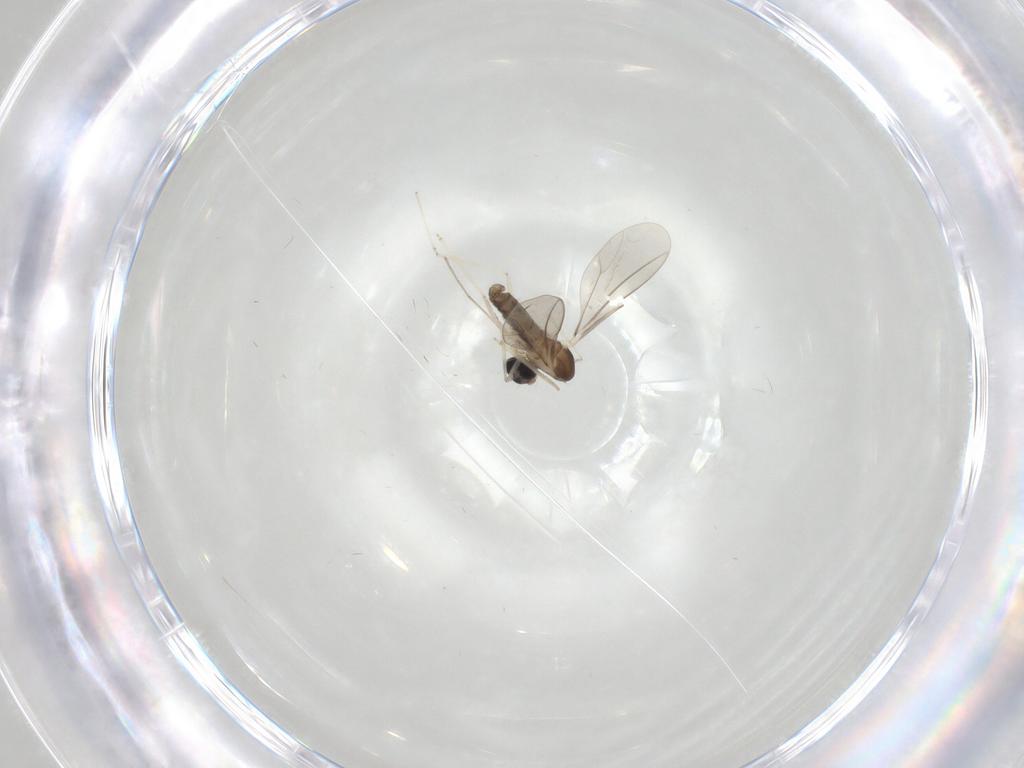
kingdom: Animalia
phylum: Arthropoda
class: Insecta
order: Diptera
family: Cecidomyiidae
